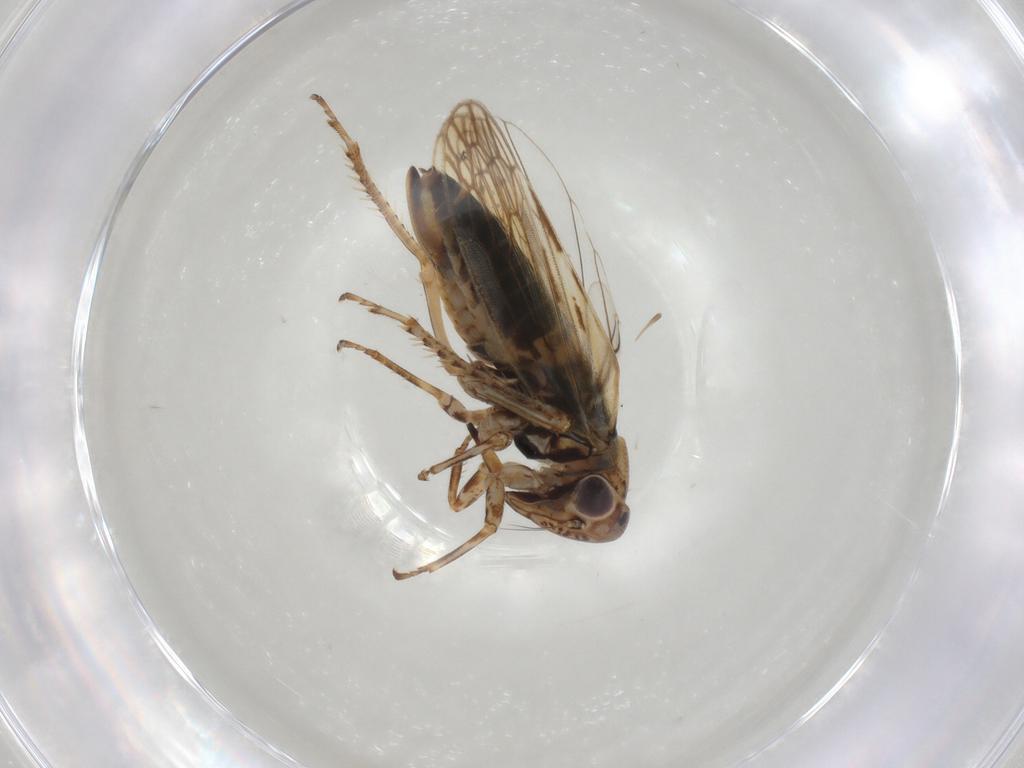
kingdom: Animalia
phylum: Arthropoda
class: Insecta
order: Hemiptera
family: Cicadellidae
